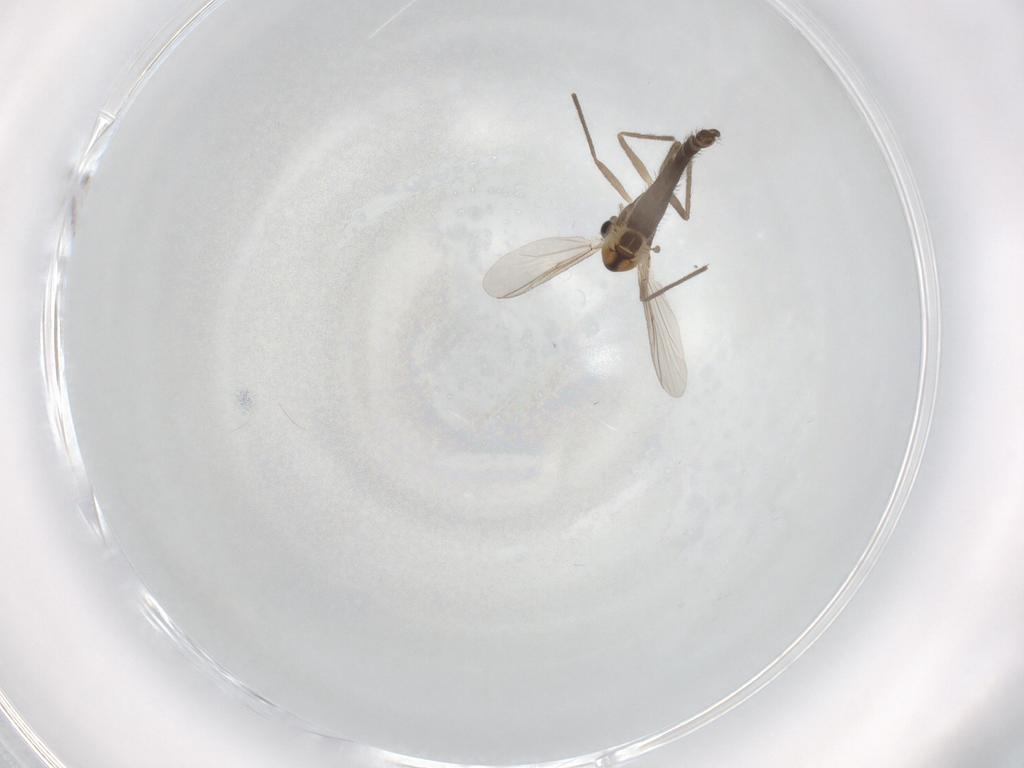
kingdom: Animalia
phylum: Arthropoda
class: Insecta
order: Diptera
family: Chironomidae
